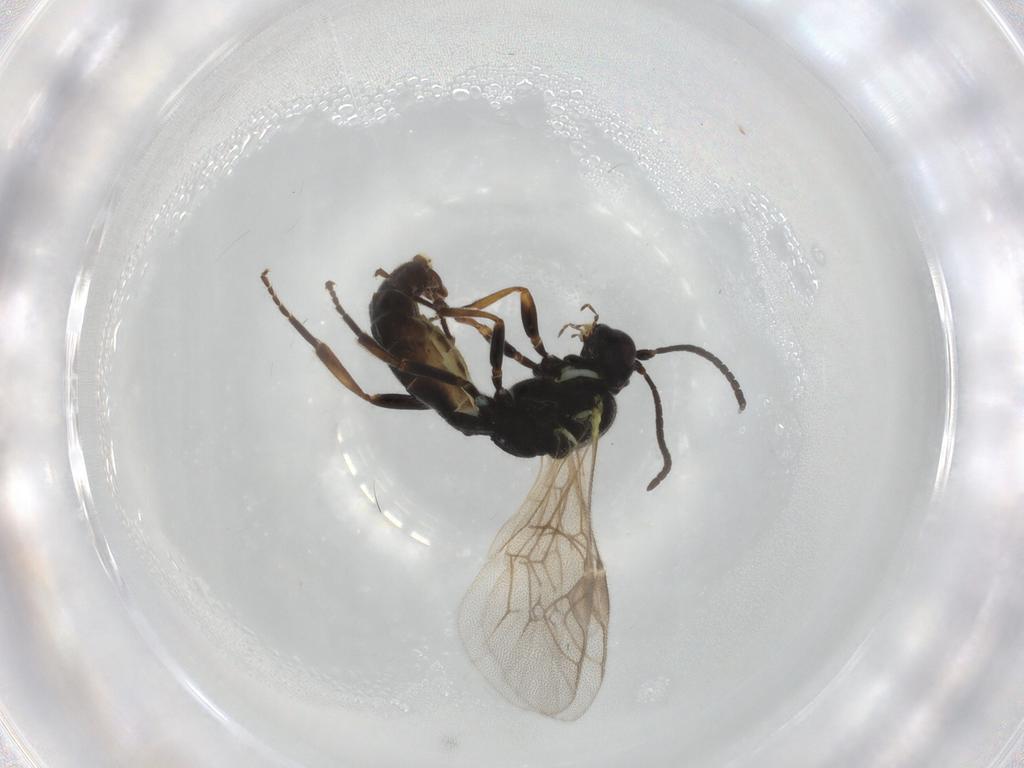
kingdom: Animalia
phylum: Arthropoda
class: Insecta
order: Hymenoptera
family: Ichneumonidae
